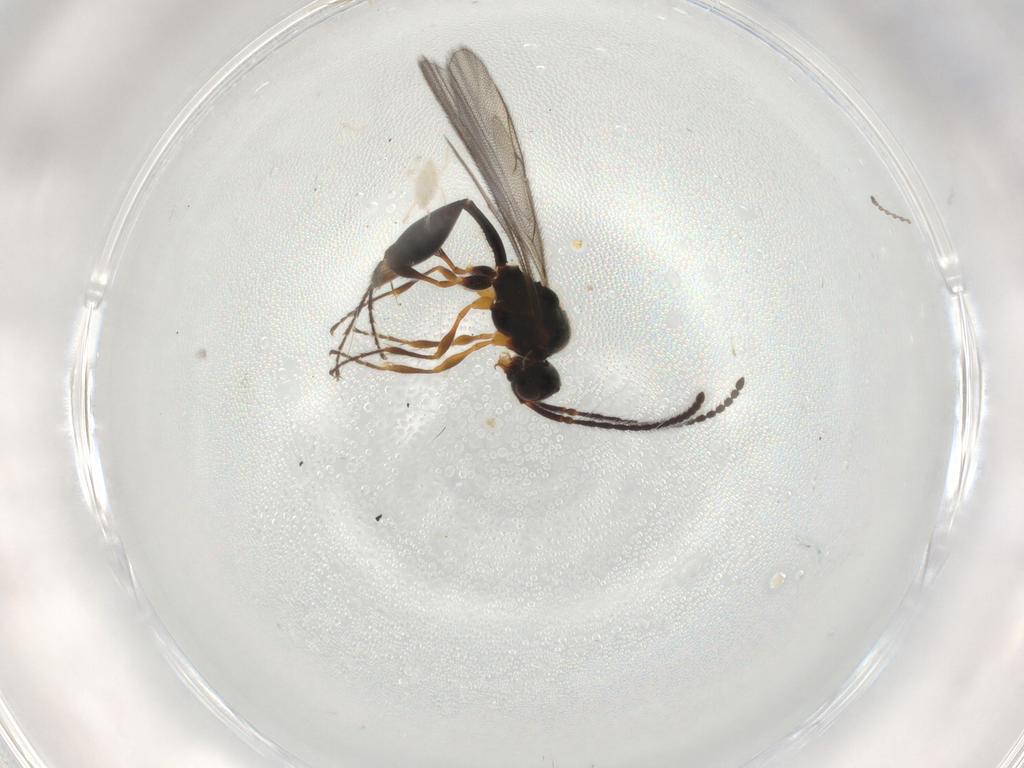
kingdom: Animalia
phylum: Arthropoda
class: Insecta
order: Hymenoptera
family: Diapriidae
